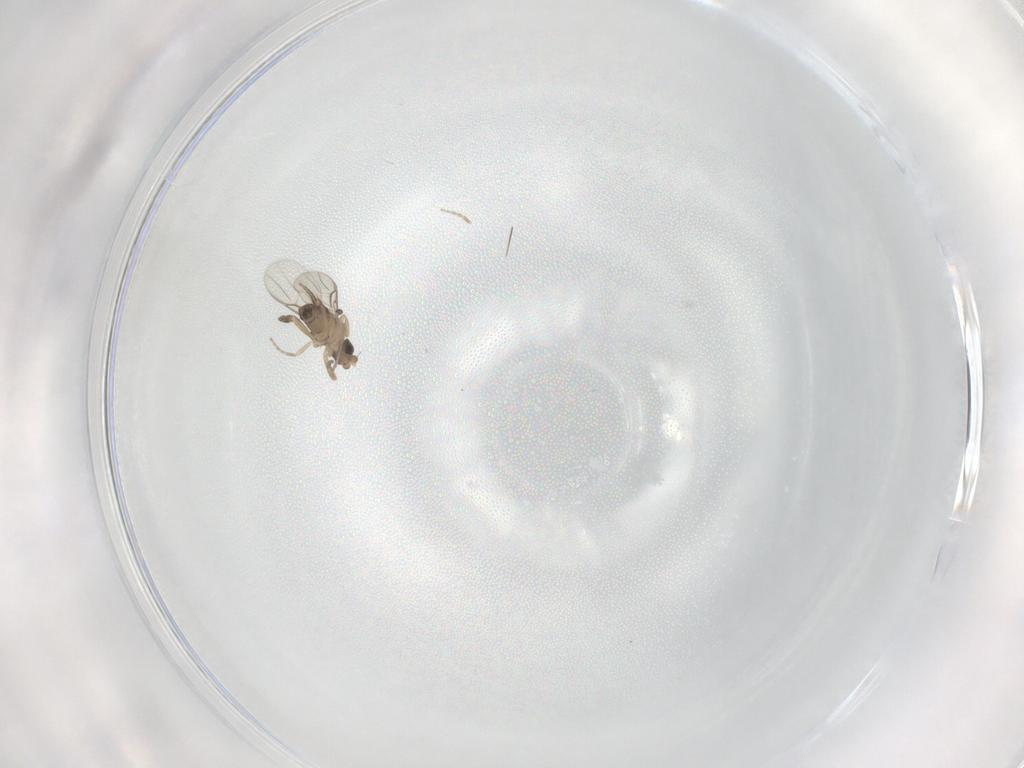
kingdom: Animalia
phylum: Arthropoda
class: Insecta
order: Diptera
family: Phoridae
